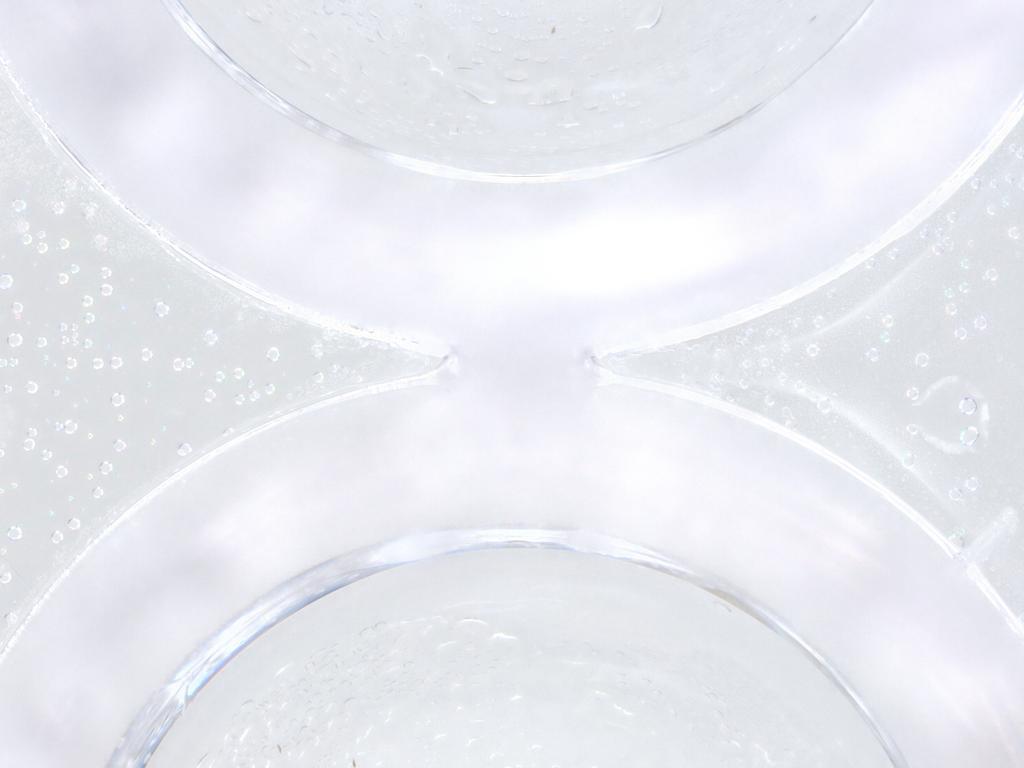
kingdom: Animalia
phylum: Arthropoda
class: Insecta
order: Diptera
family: Cecidomyiidae
